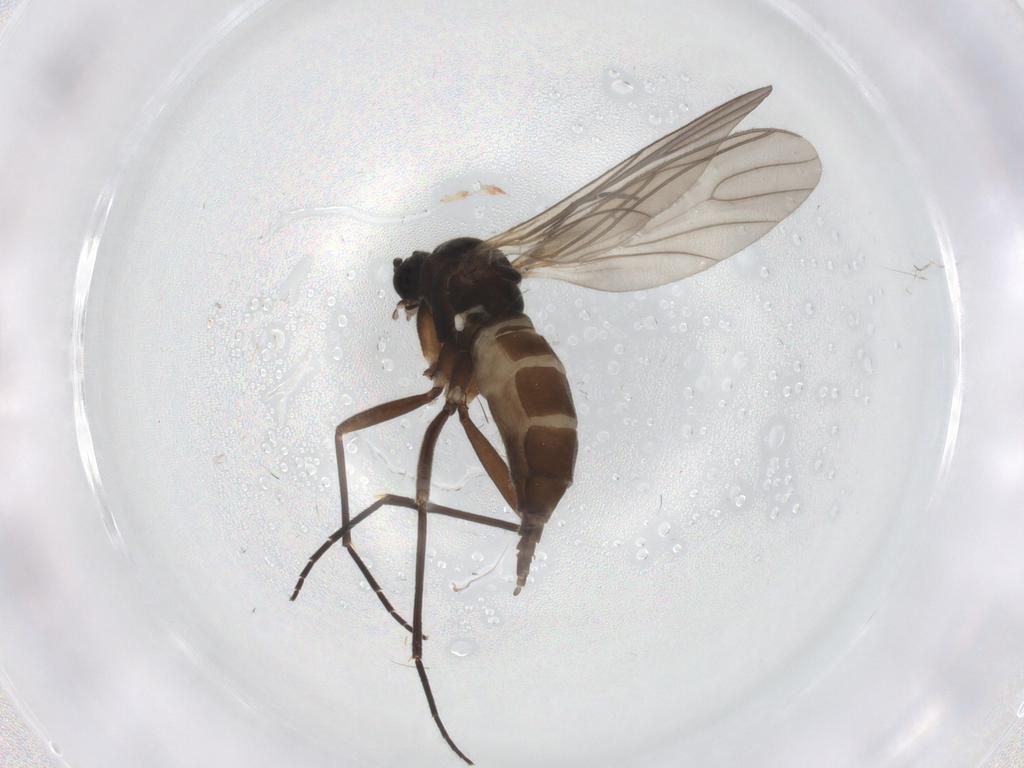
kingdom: Animalia
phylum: Arthropoda
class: Insecta
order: Diptera
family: Sciaridae
